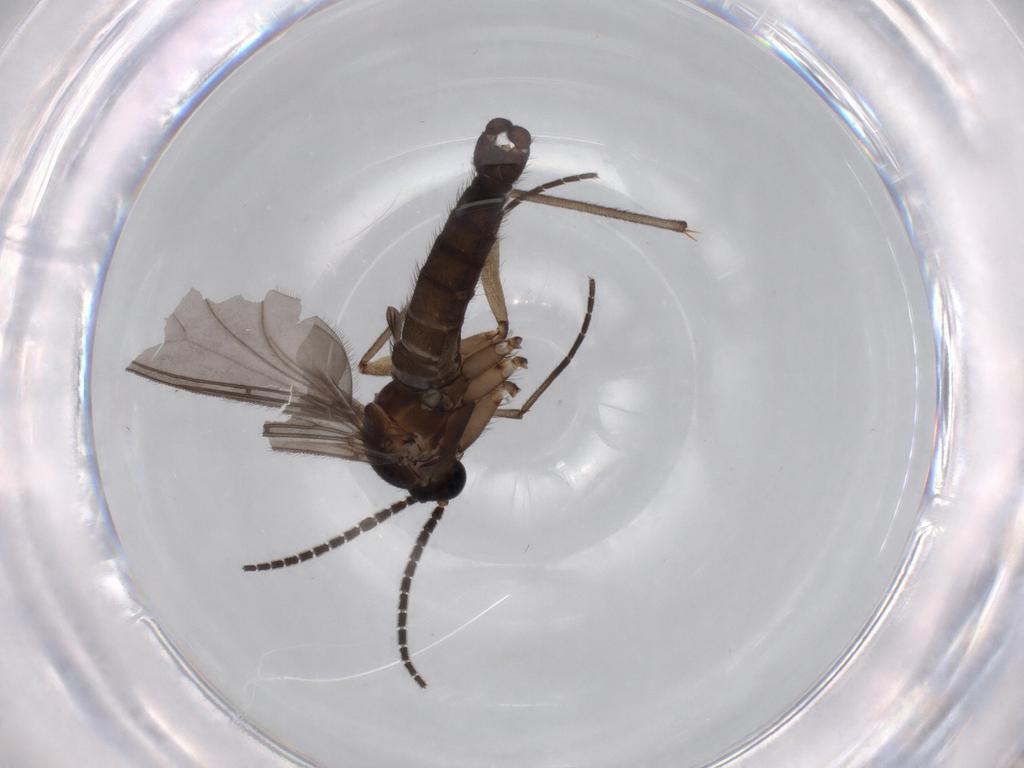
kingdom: Animalia
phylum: Arthropoda
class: Insecta
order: Diptera
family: Sciaridae
